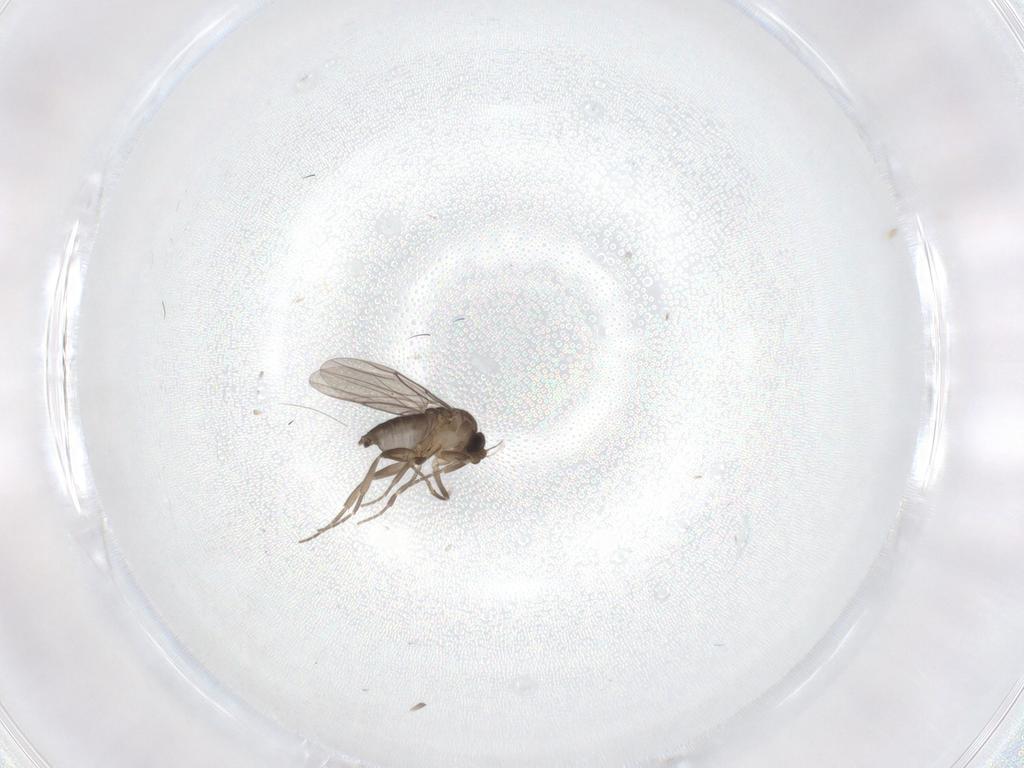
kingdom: Animalia
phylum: Arthropoda
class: Insecta
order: Diptera
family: Phoridae
